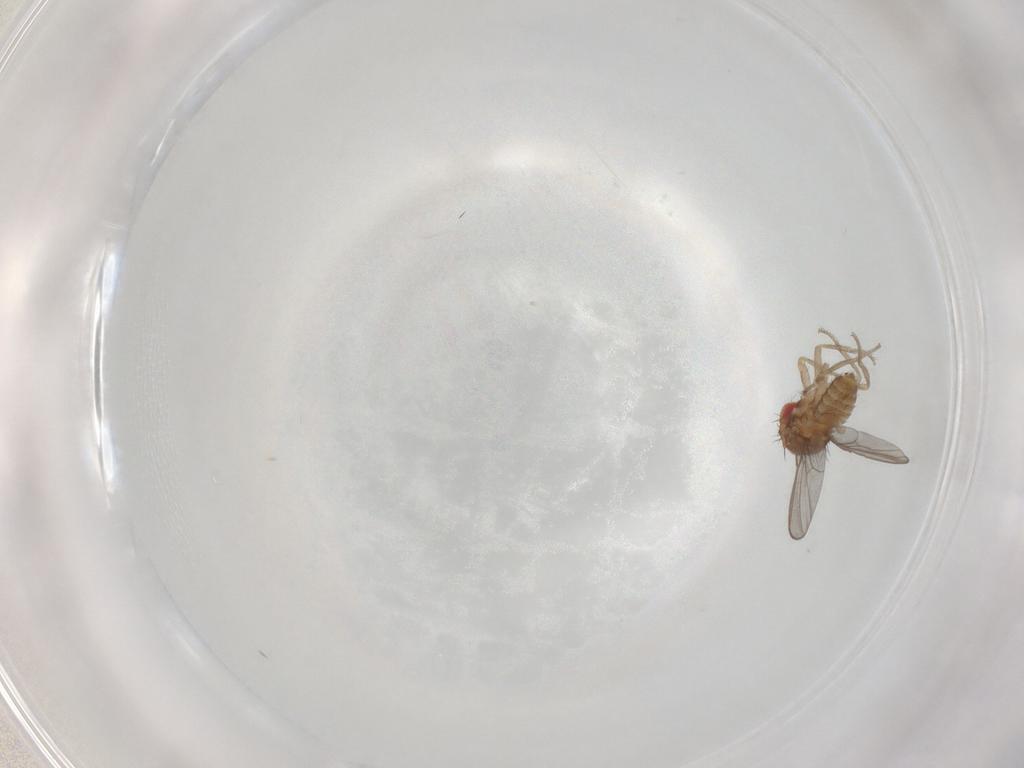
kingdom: Animalia
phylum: Arthropoda
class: Insecta
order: Diptera
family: Ephydridae
